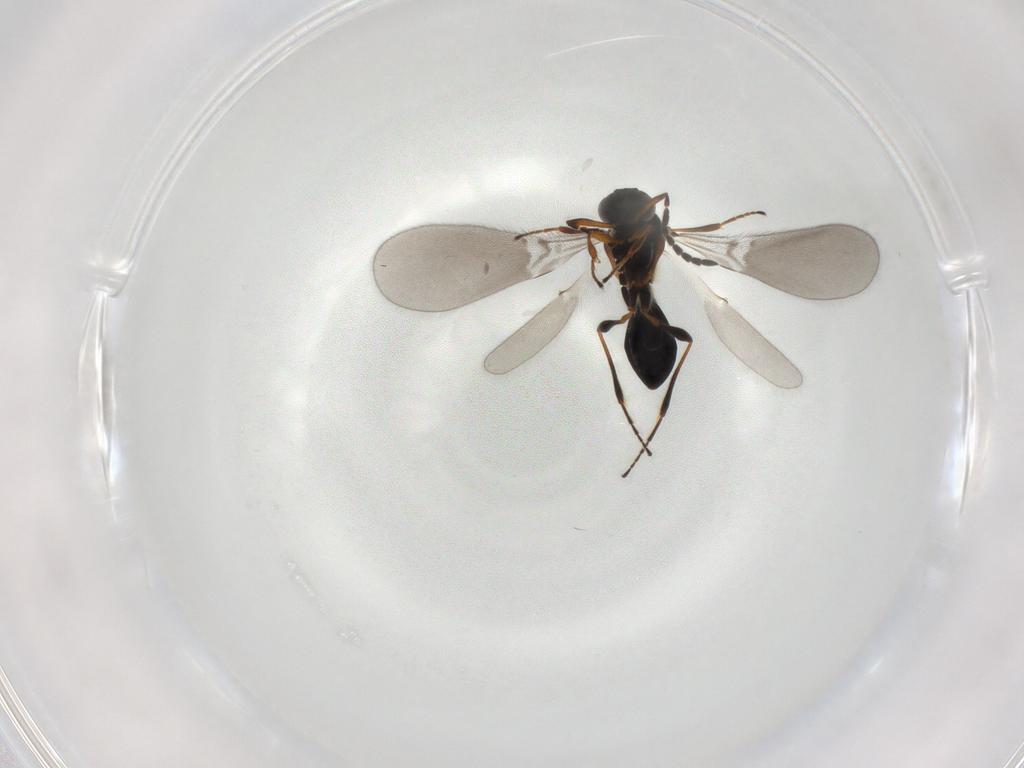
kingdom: Animalia
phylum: Arthropoda
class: Insecta
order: Hymenoptera
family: Platygastridae
